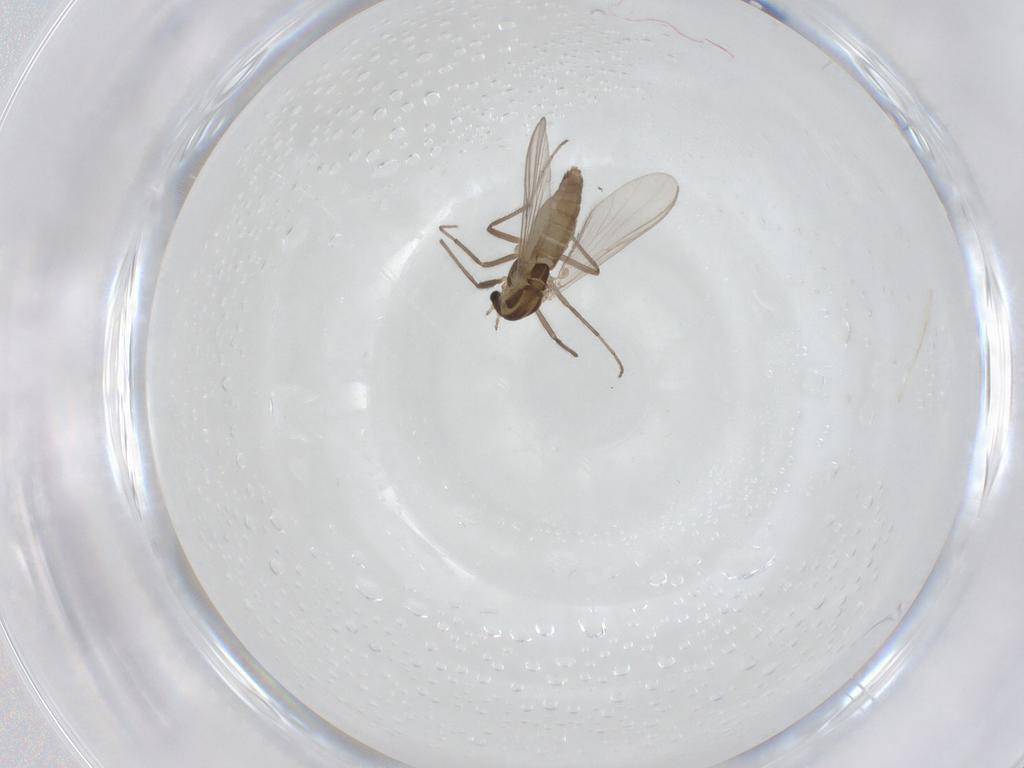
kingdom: Animalia
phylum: Arthropoda
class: Insecta
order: Diptera
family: Chironomidae
